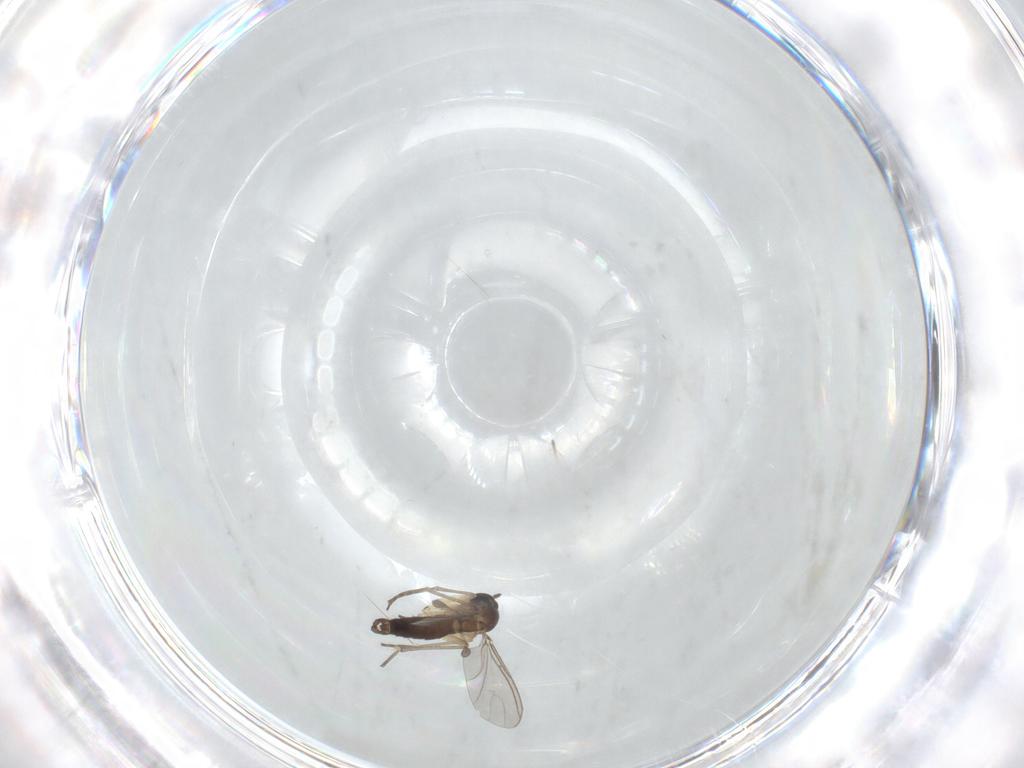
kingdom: Animalia
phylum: Arthropoda
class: Insecta
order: Diptera
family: Sciaridae
